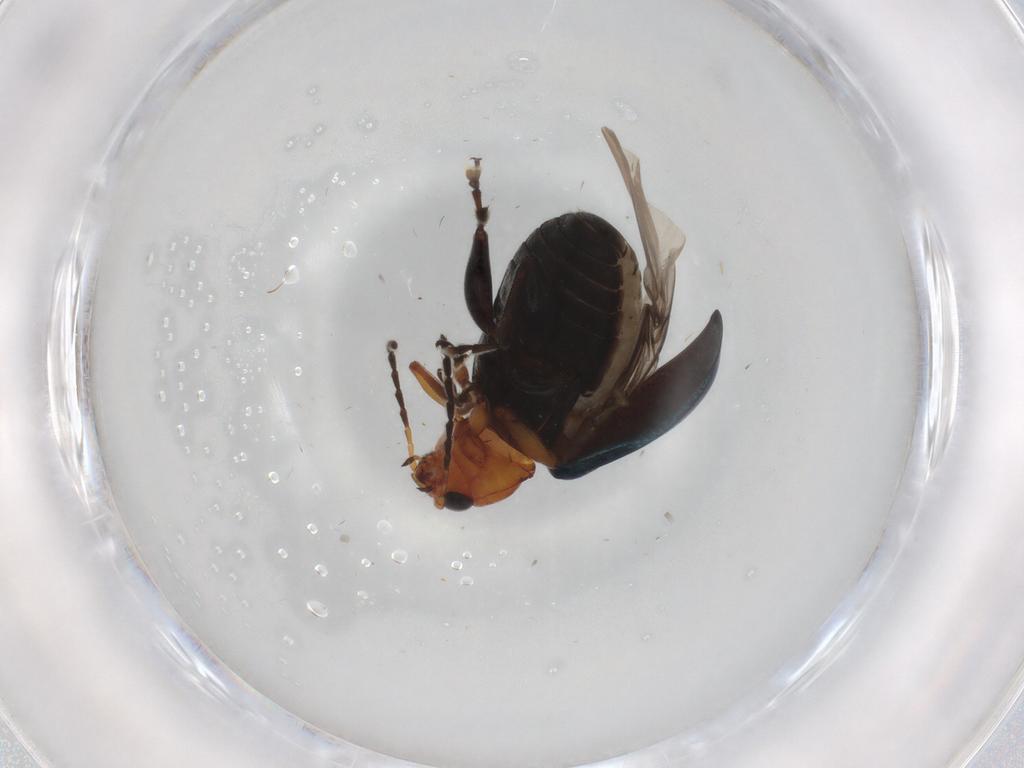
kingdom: Animalia
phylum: Arthropoda
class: Insecta
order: Coleoptera
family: Chrysomelidae
